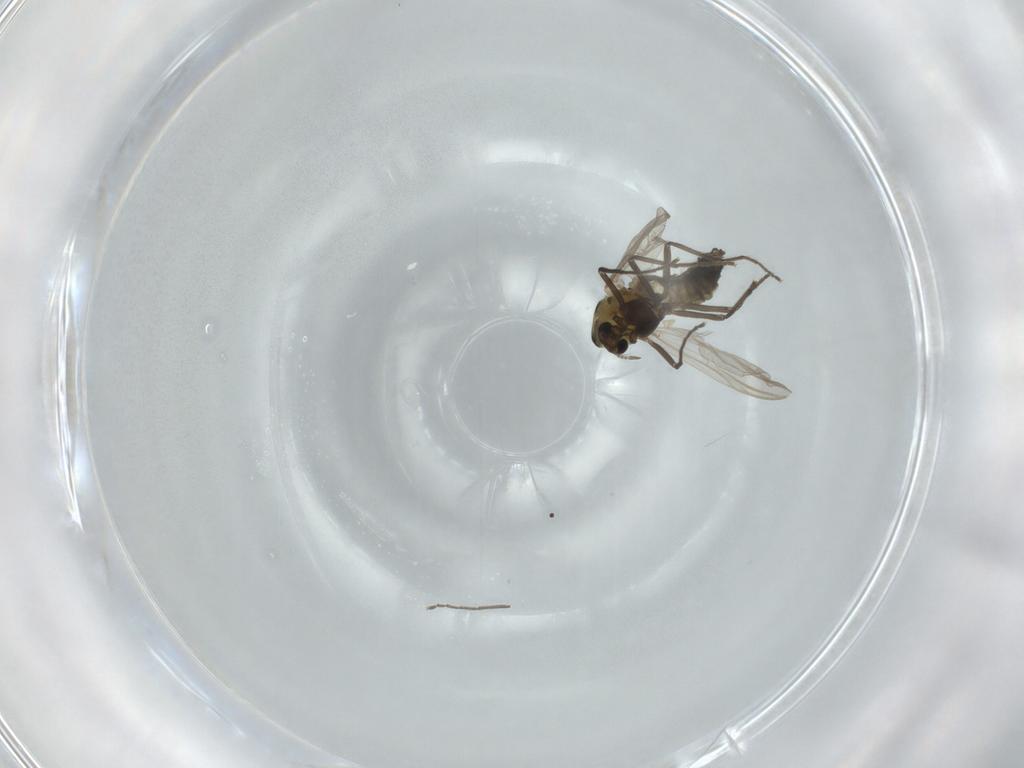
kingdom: Animalia
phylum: Arthropoda
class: Insecta
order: Diptera
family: Chironomidae
